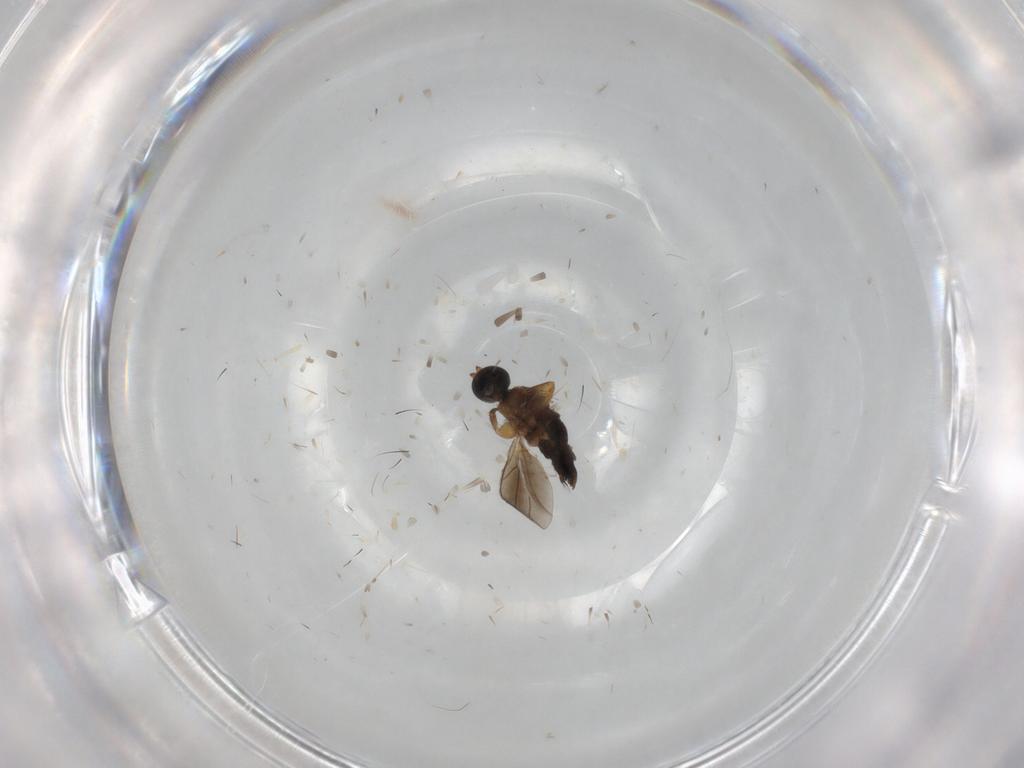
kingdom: Animalia
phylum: Arthropoda
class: Insecta
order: Diptera
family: Hybotidae
